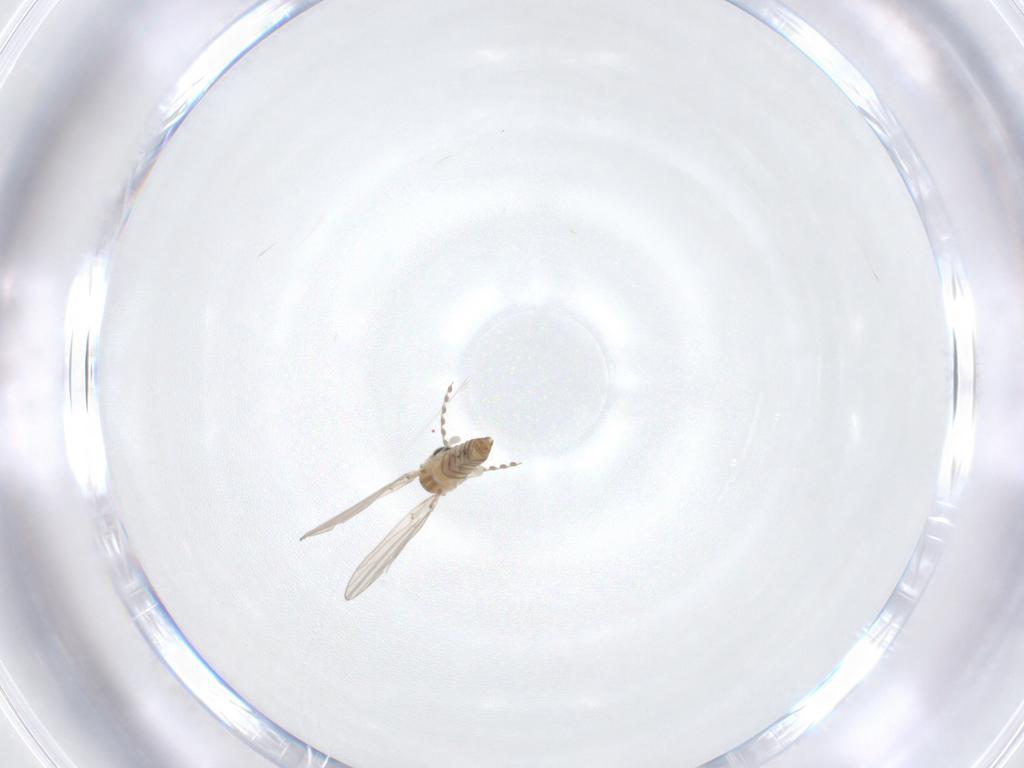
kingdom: Animalia
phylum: Arthropoda
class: Insecta
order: Diptera
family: Psychodidae
